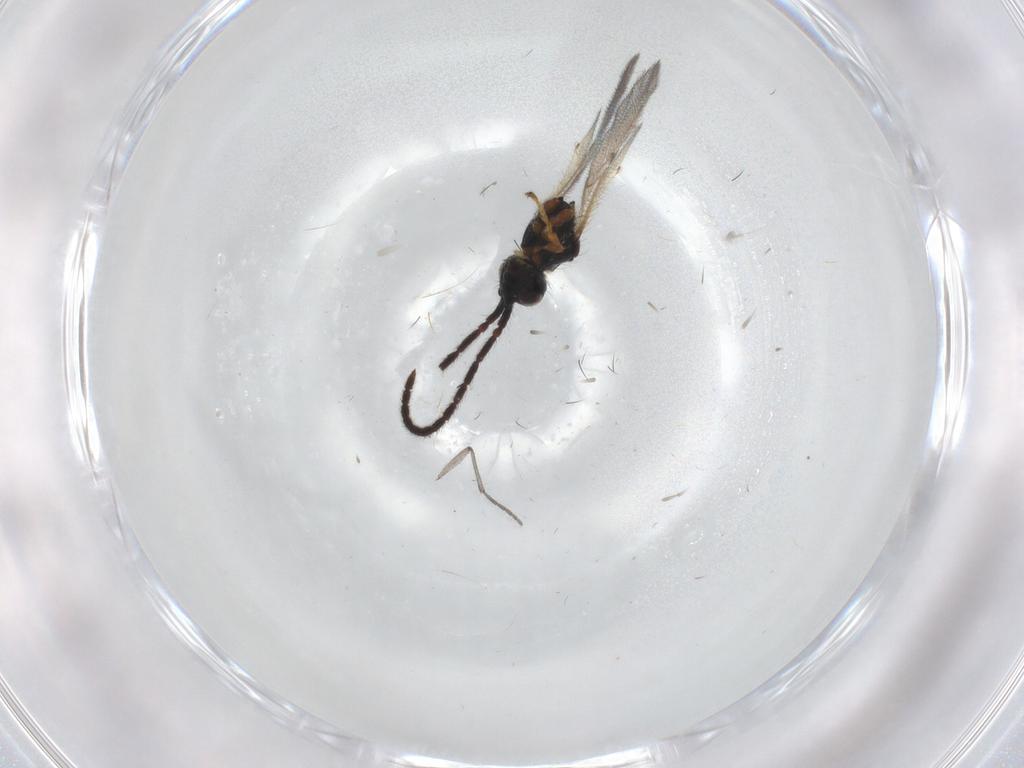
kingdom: Animalia
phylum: Arthropoda
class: Insecta
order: Hymenoptera
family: Diapriidae
